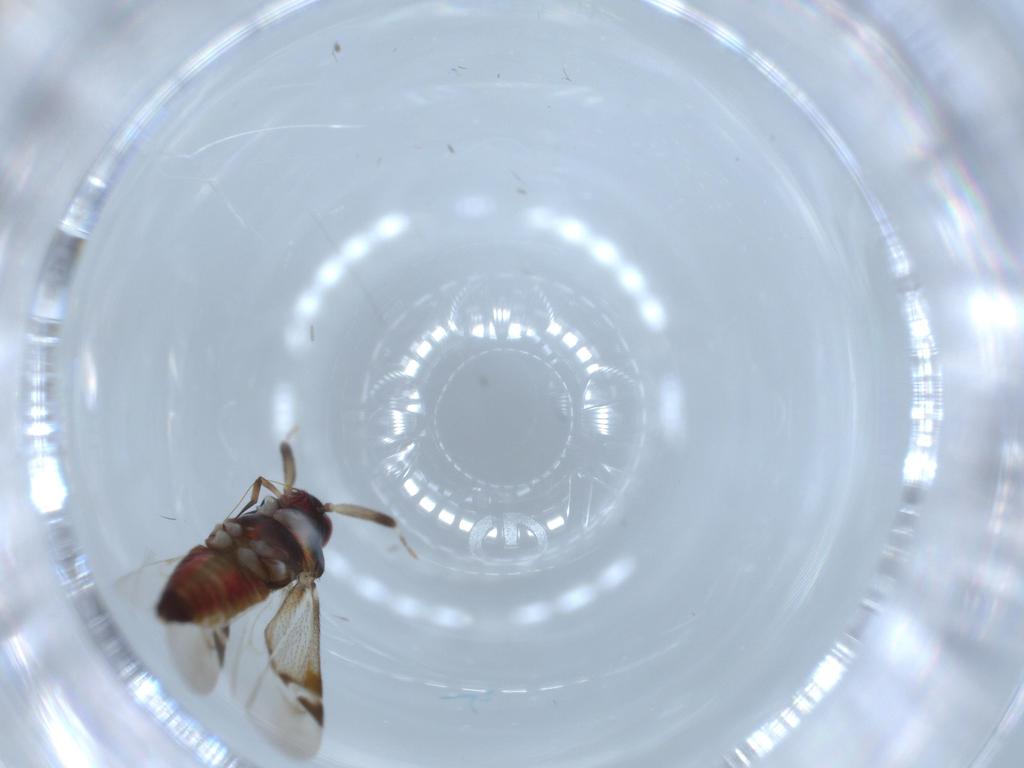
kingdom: Animalia
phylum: Arthropoda
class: Insecta
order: Hemiptera
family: Miridae
